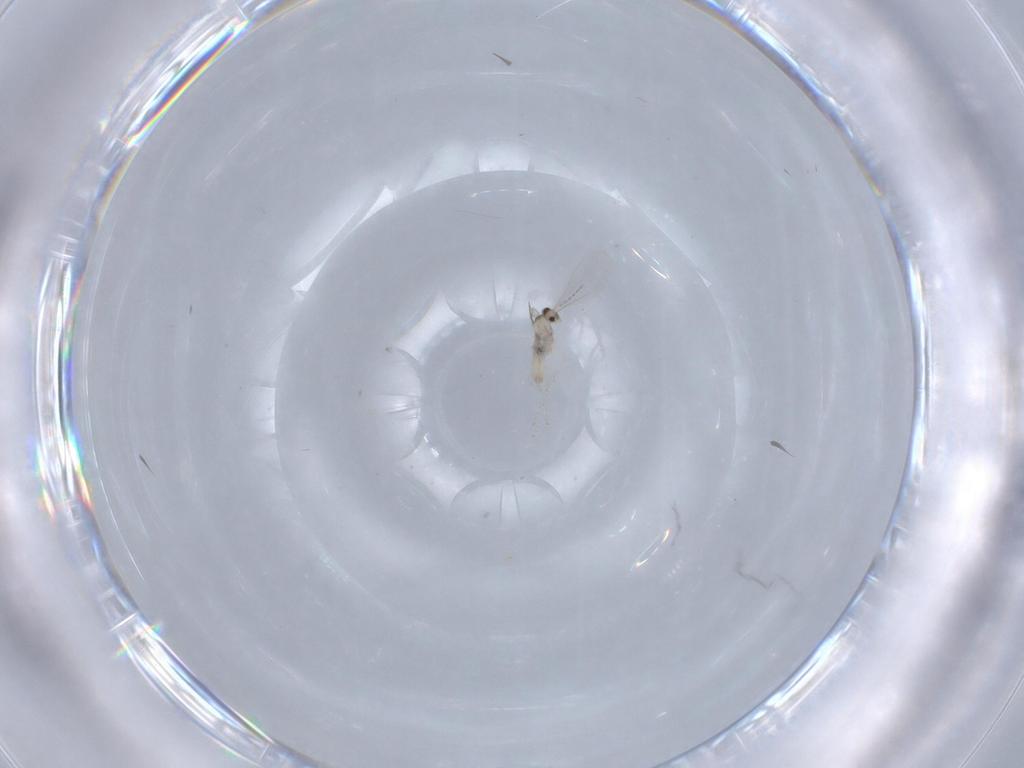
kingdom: Animalia
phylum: Arthropoda
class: Insecta
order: Diptera
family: Cecidomyiidae
